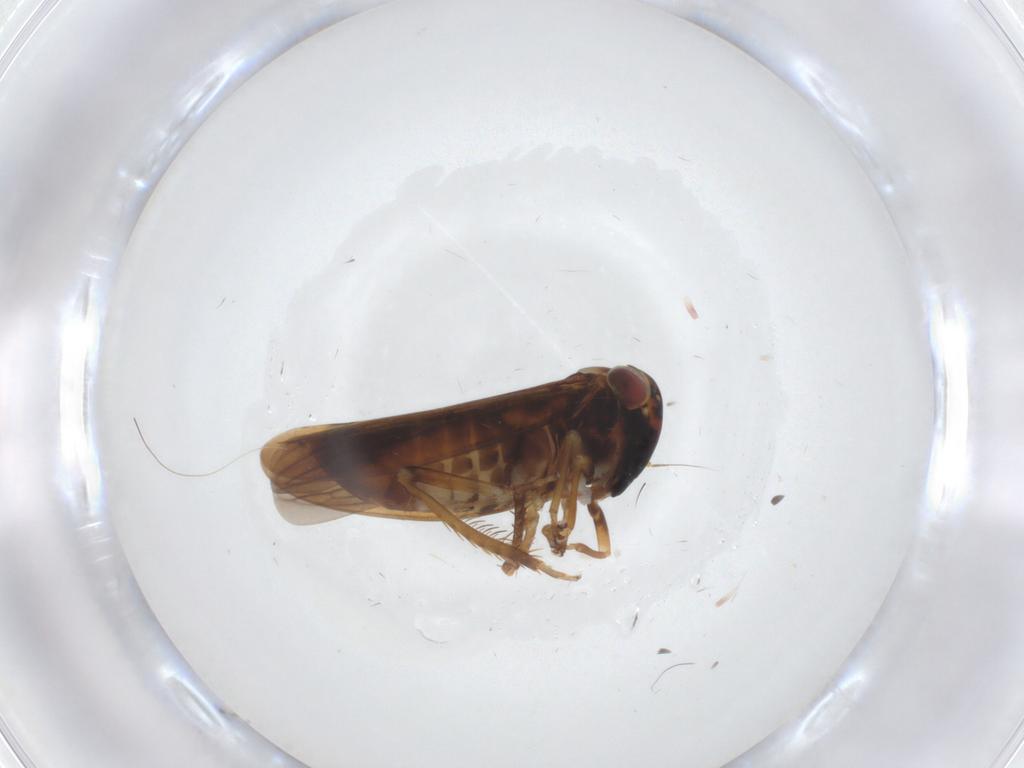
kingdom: Animalia
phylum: Arthropoda
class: Insecta
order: Hemiptera
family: Cicadellidae
